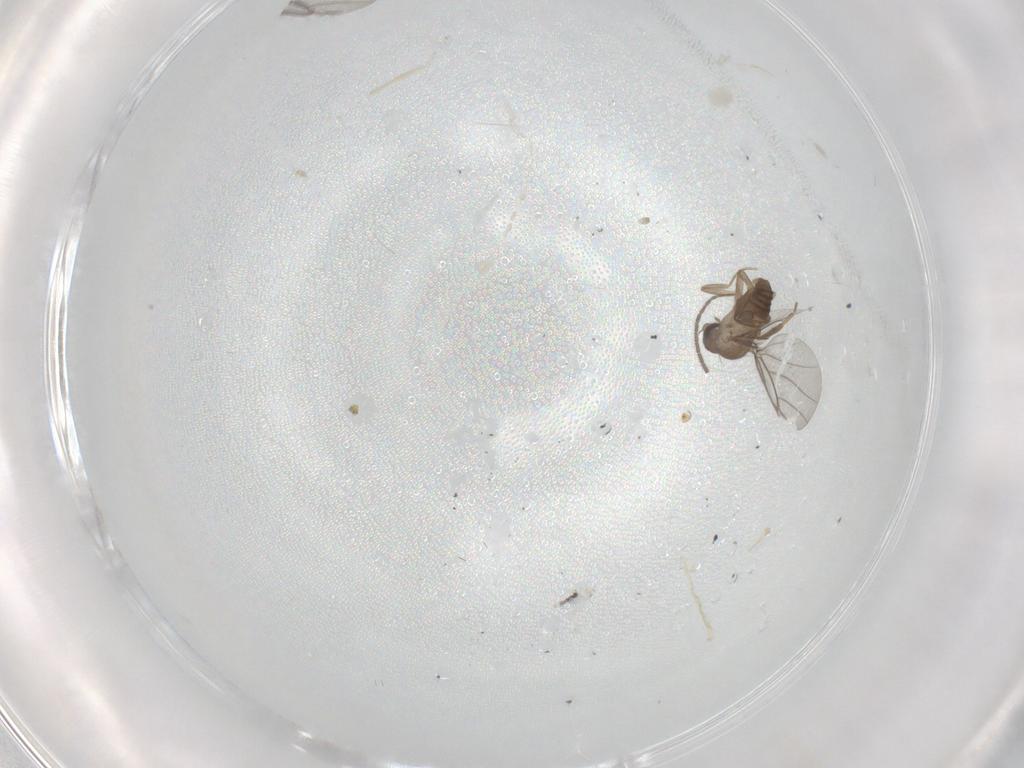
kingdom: Animalia
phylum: Arthropoda
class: Insecta
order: Diptera
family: Sciaridae
